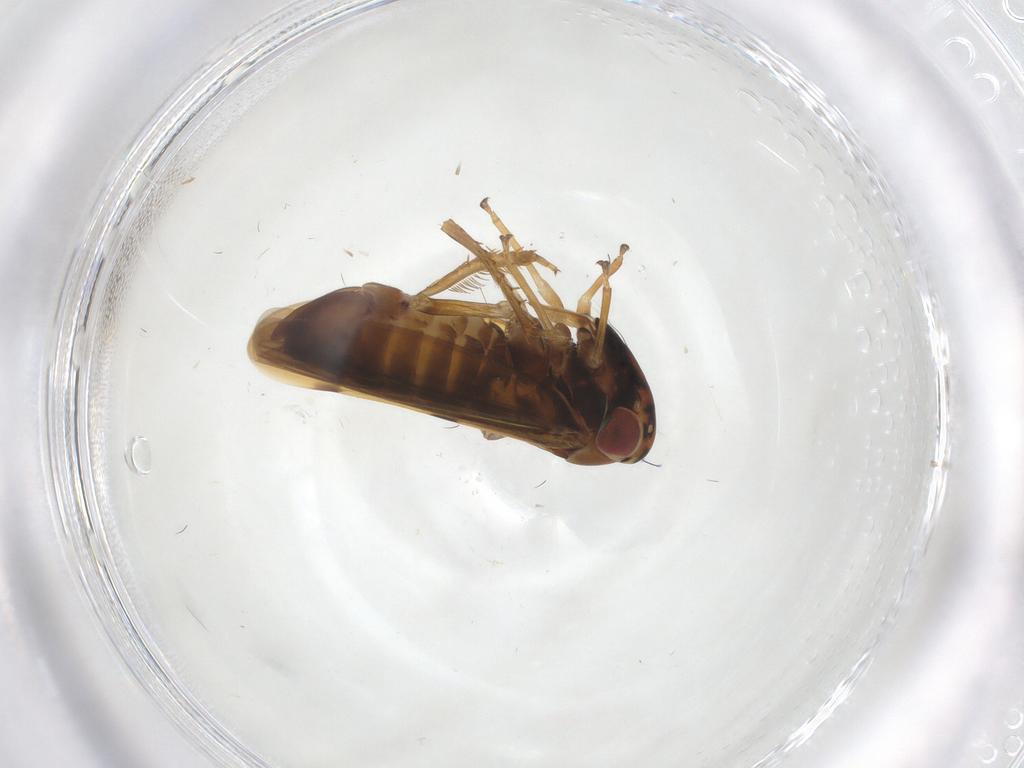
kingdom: Animalia
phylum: Arthropoda
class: Insecta
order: Hemiptera
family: Cicadellidae
